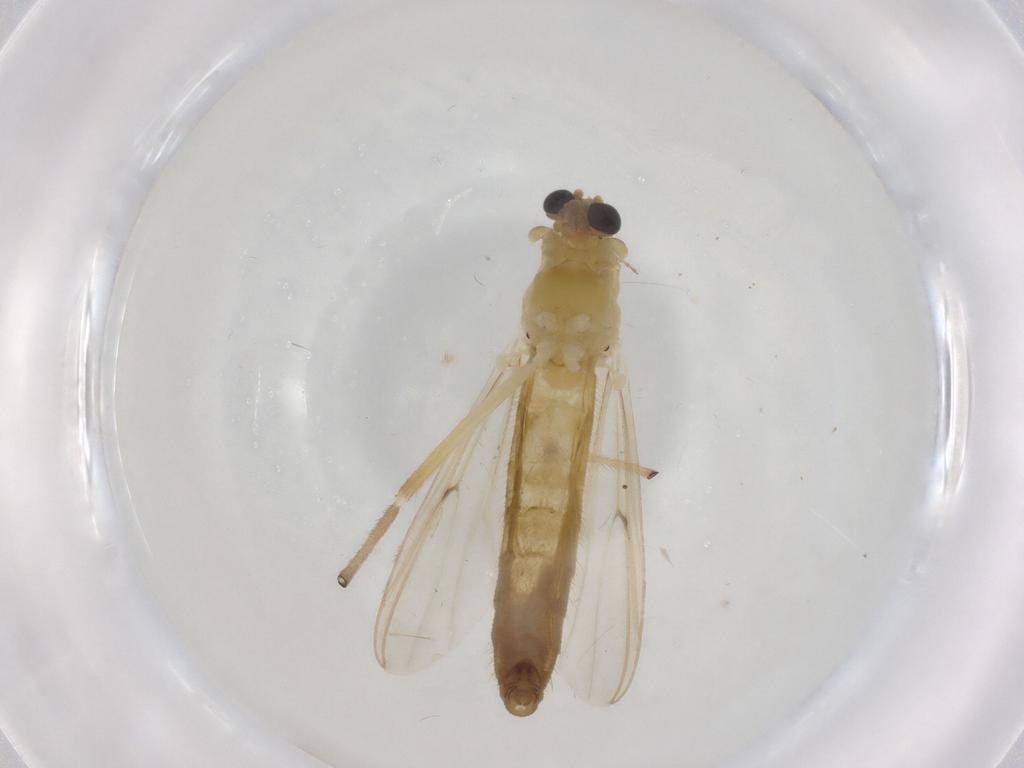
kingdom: Animalia
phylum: Arthropoda
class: Insecta
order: Diptera
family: Chironomidae
